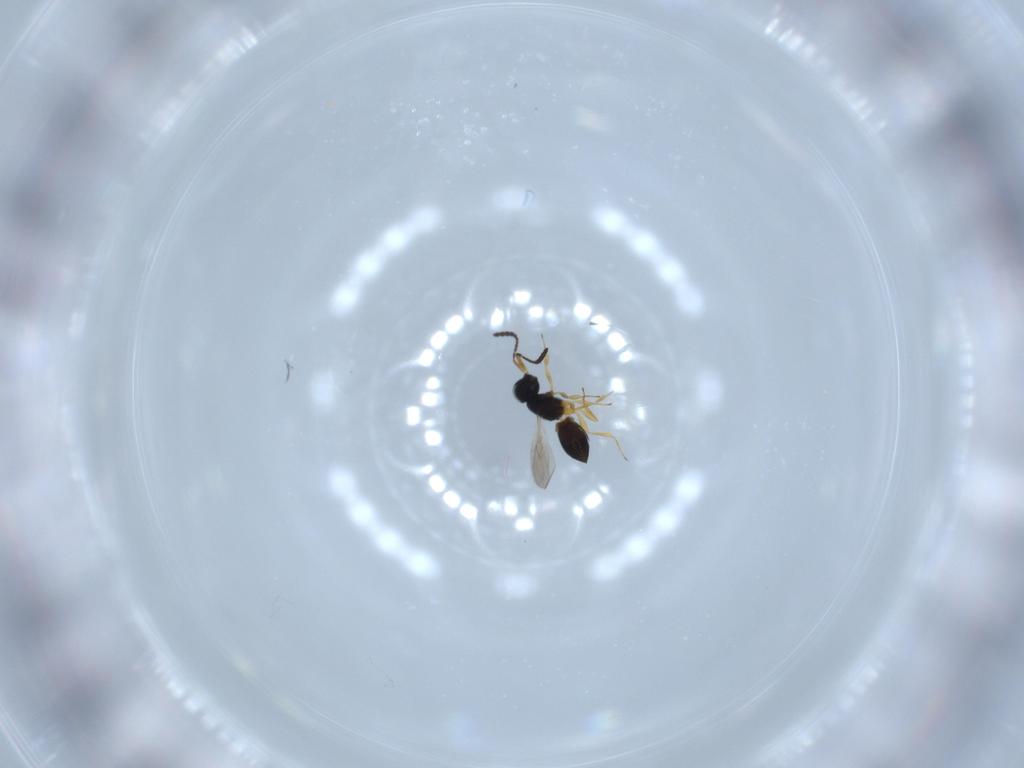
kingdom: Animalia
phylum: Arthropoda
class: Insecta
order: Hymenoptera
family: Scelionidae
